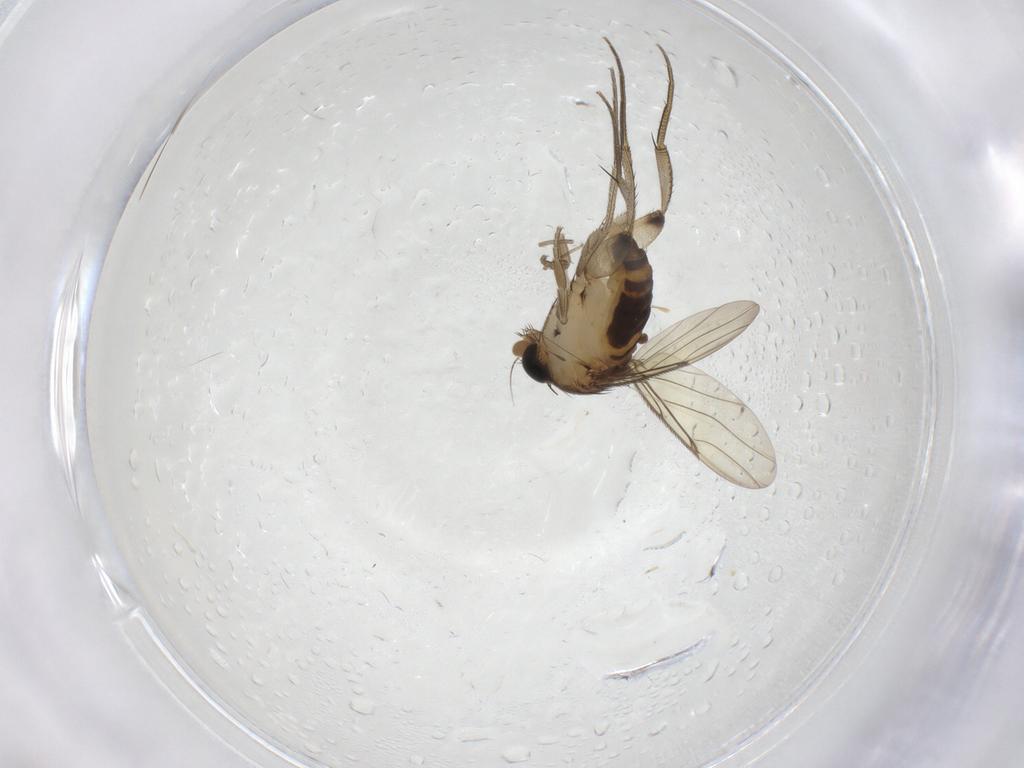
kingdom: Animalia
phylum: Arthropoda
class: Insecta
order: Diptera
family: Phoridae
